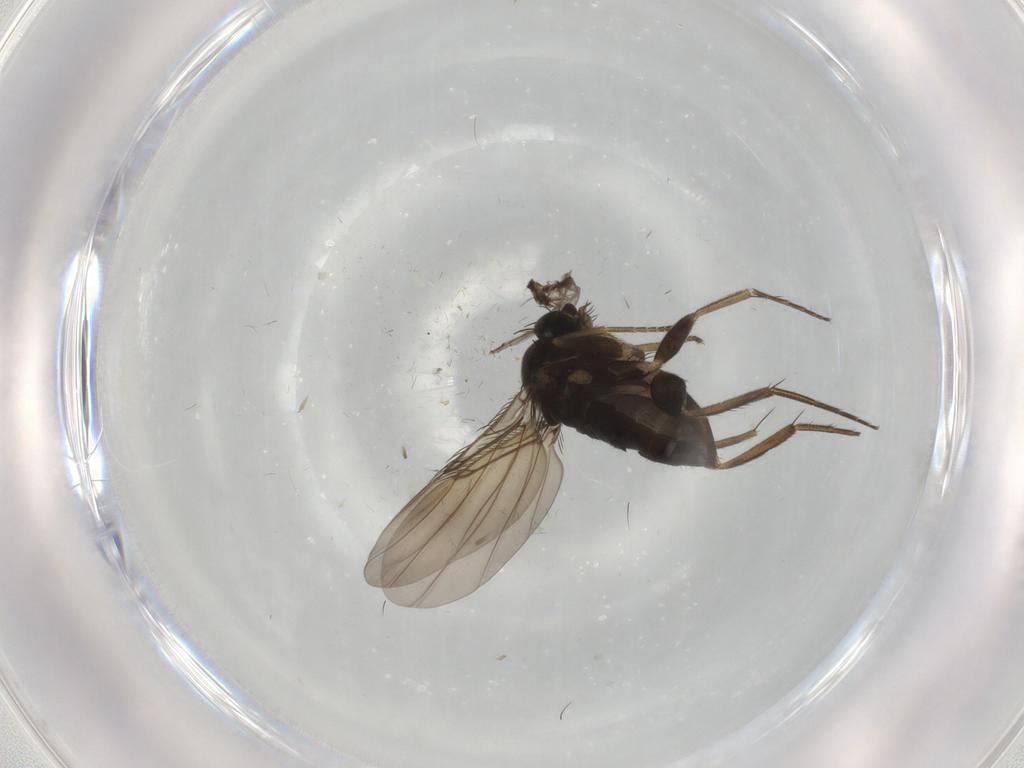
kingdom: Animalia
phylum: Arthropoda
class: Insecta
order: Diptera
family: Phoridae
